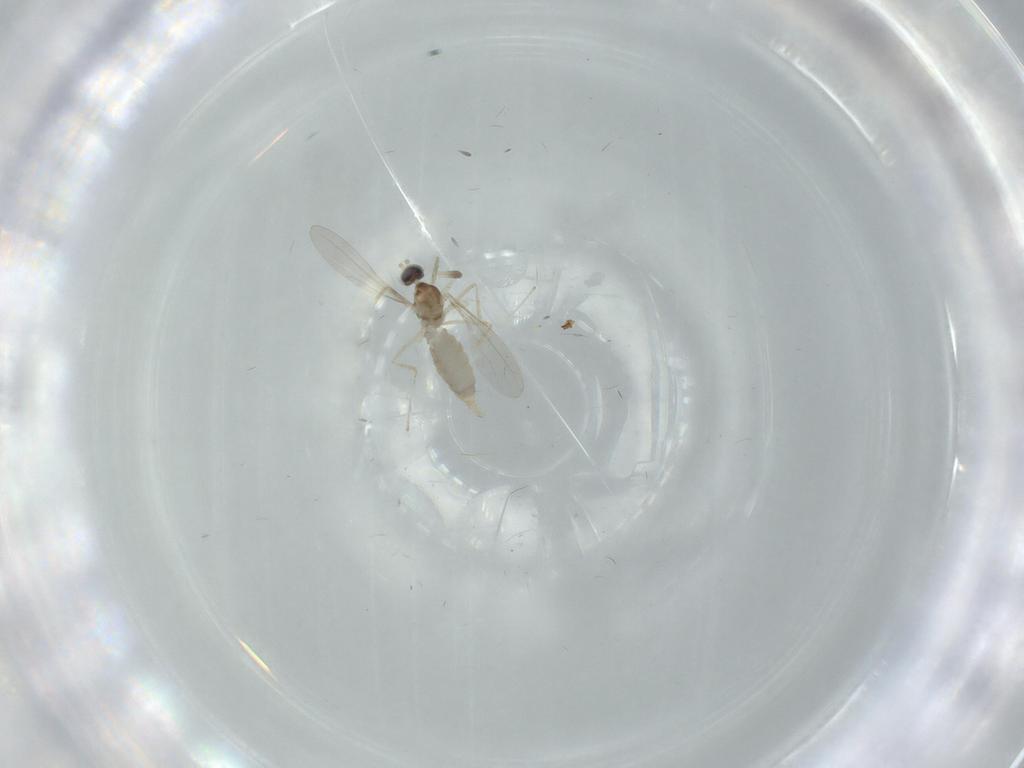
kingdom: Animalia
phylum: Arthropoda
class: Insecta
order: Diptera
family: Cecidomyiidae
